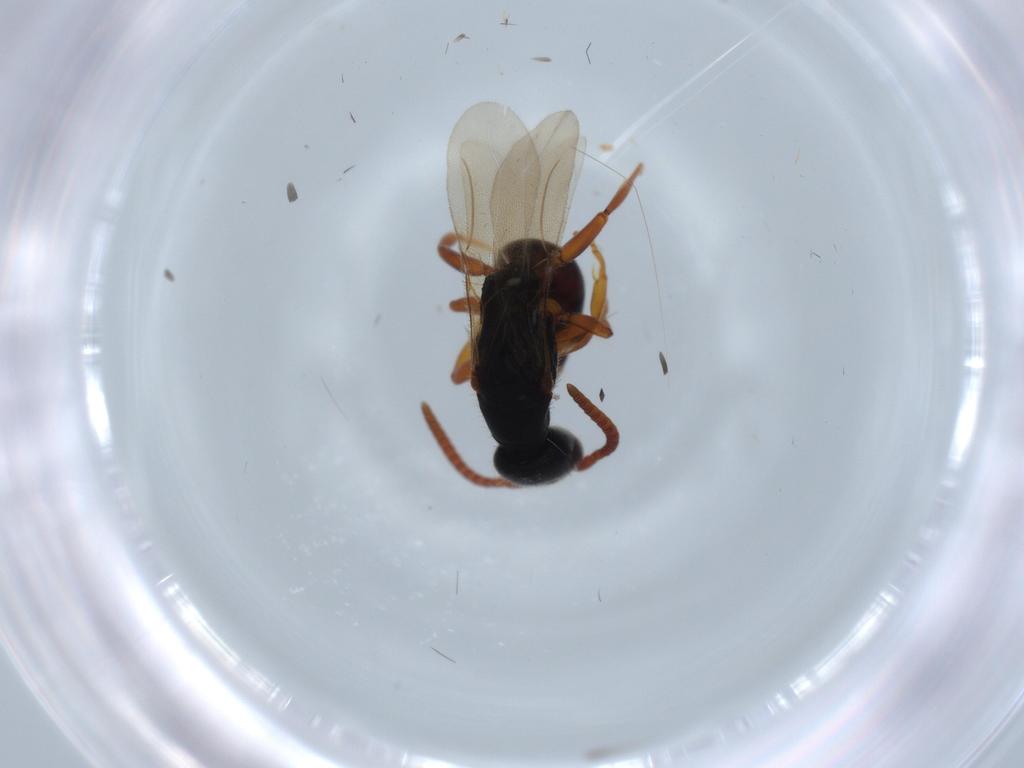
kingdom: Animalia
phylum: Arthropoda
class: Insecta
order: Hymenoptera
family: Bethylidae
